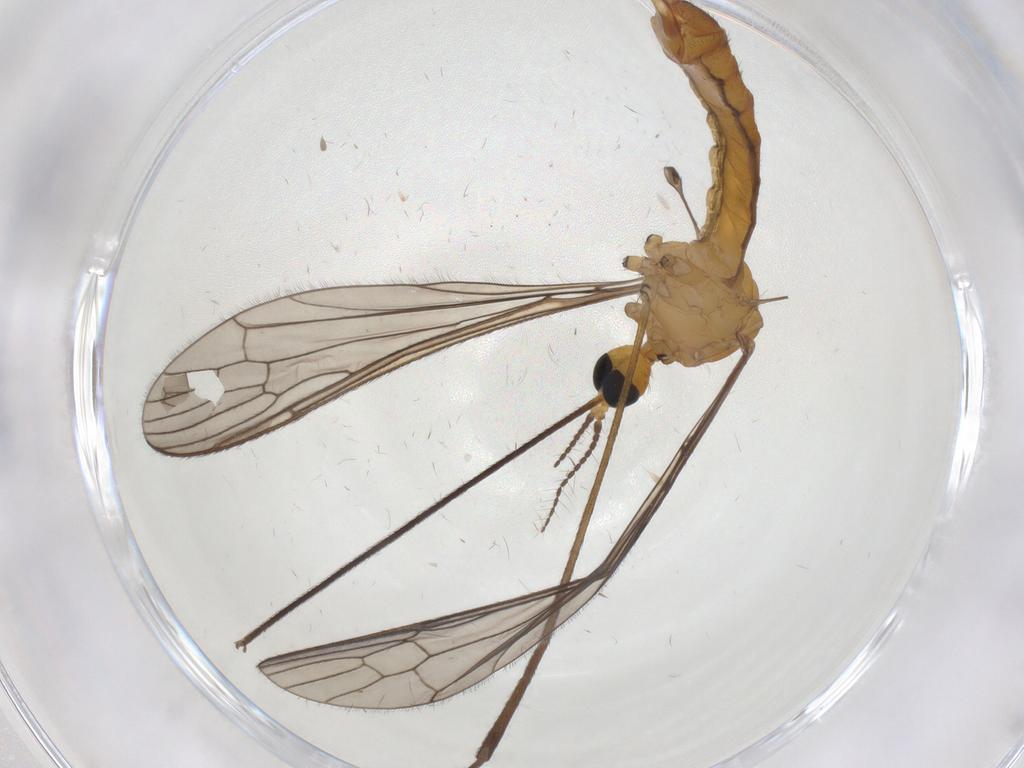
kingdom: Animalia
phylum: Arthropoda
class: Insecta
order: Diptera
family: Limoniidae
